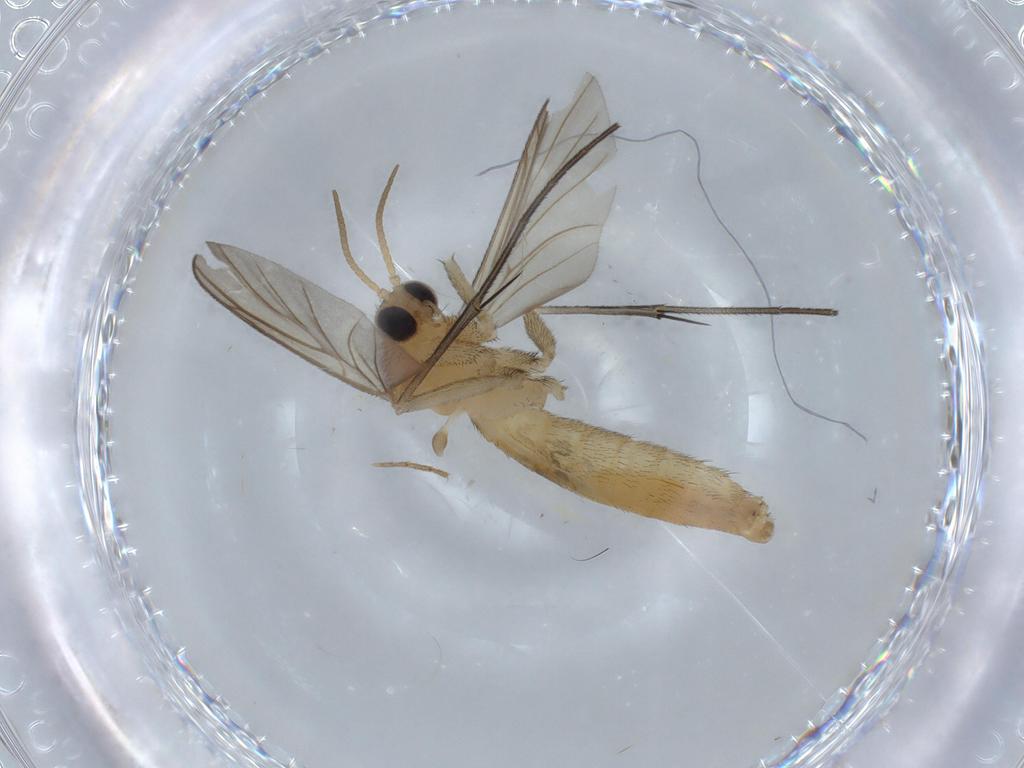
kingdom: Animalia
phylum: Arthropoda
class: Insecta
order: Diptera
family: Keroplatidae
